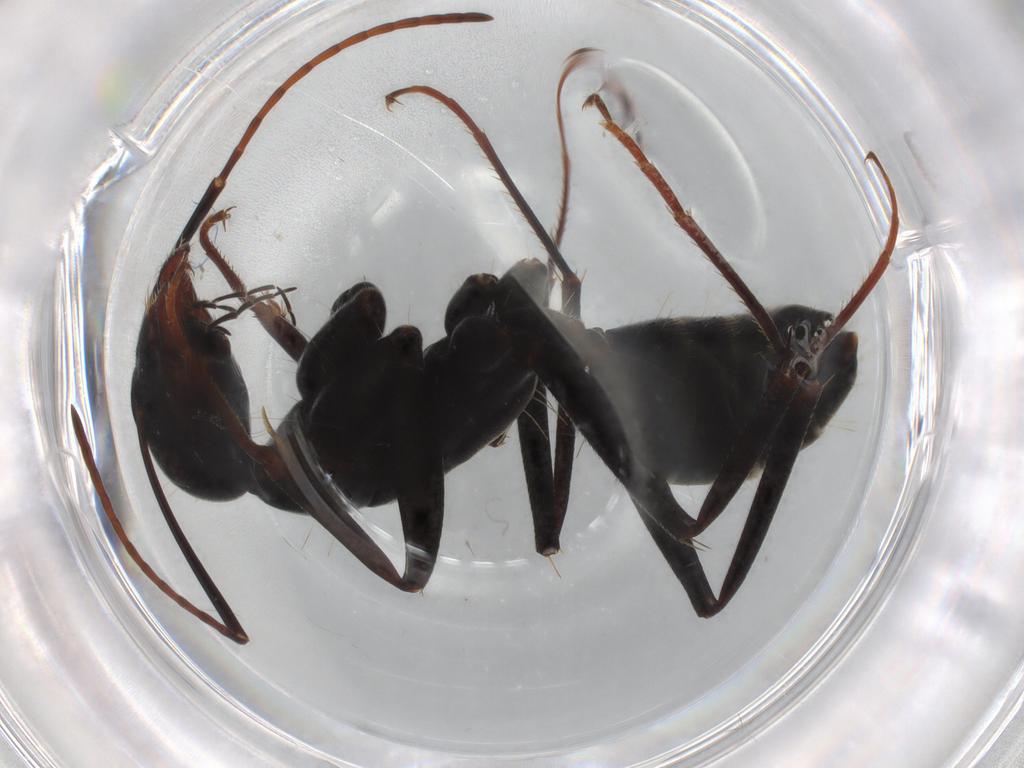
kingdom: Animalia
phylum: Arthropoda
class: Insecta
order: Hymenoptera
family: Formicidae
